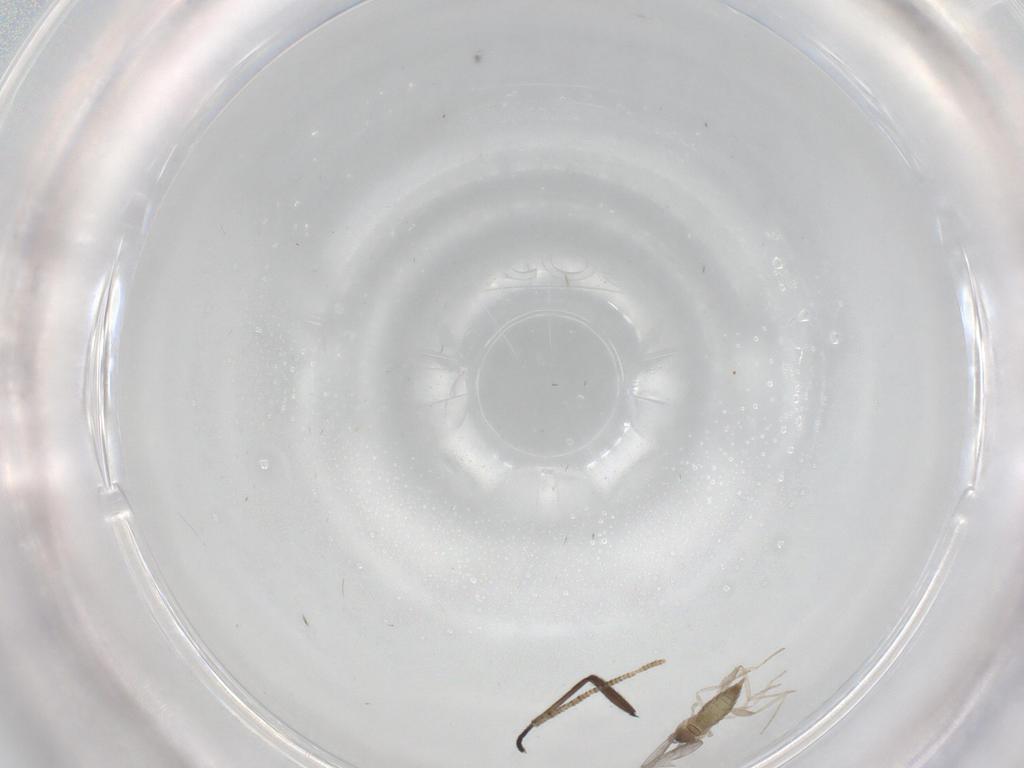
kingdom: Animalia
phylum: Arthropoda
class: Insecta
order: Diptera
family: Cecidomyiidae
